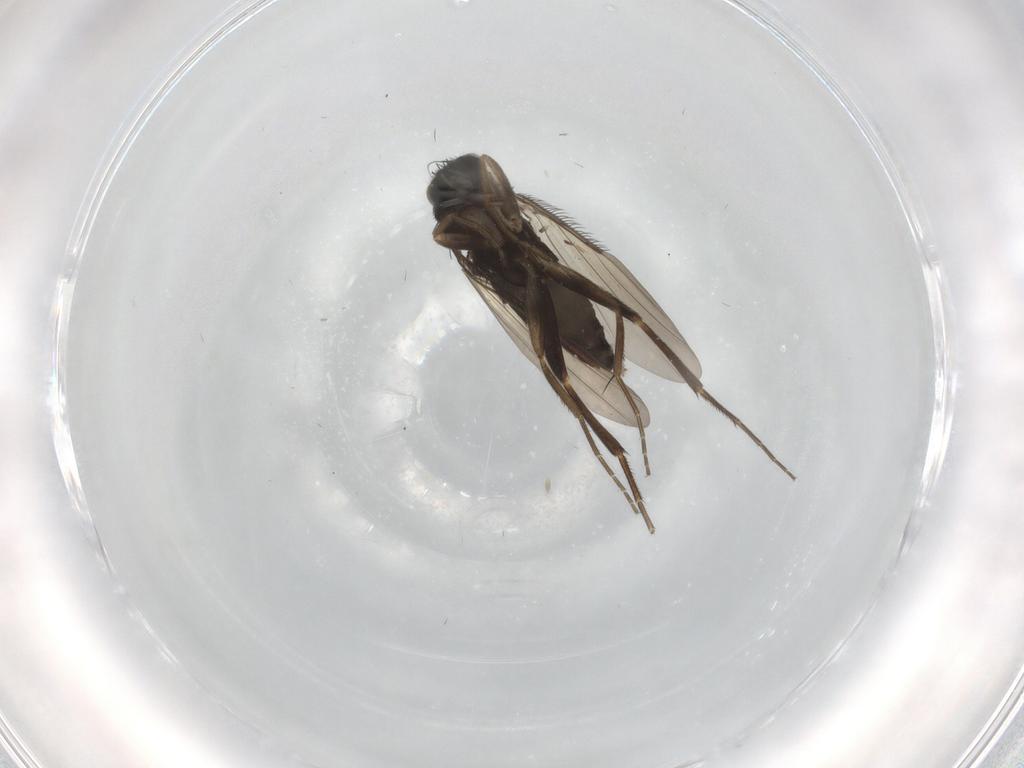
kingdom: Animalia
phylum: Arthropoda
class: Insecta
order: Diptera
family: Phoridae
